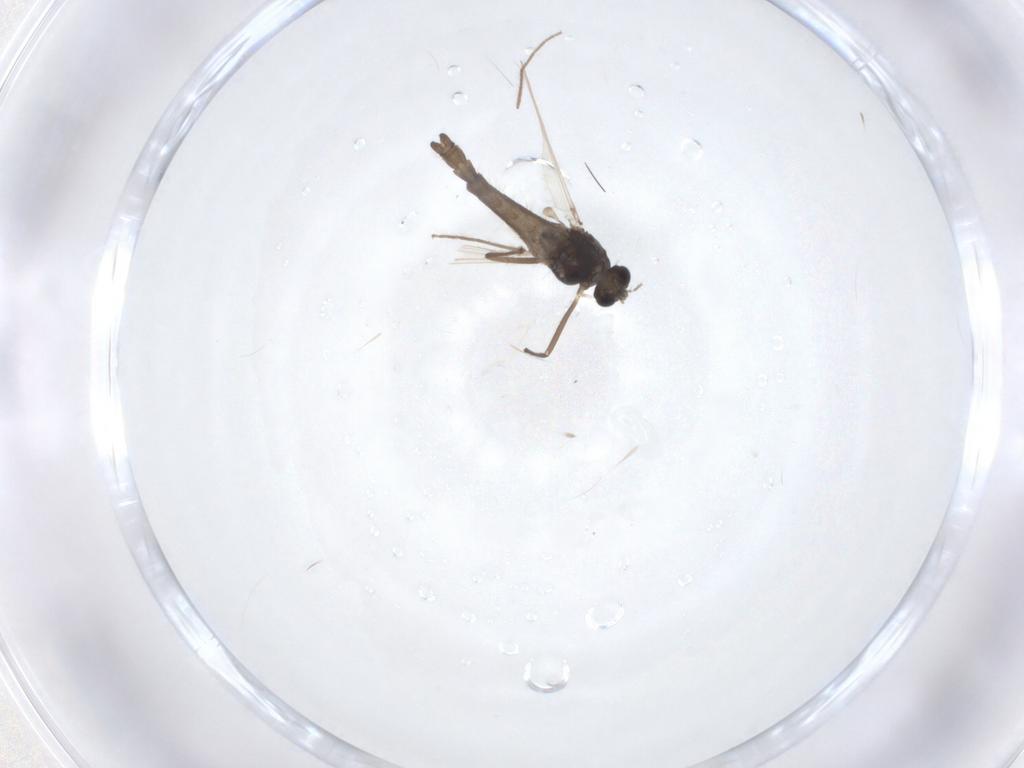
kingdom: Animalia
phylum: Arthropoda
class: Insecta
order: Diptera
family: Chironomidae
